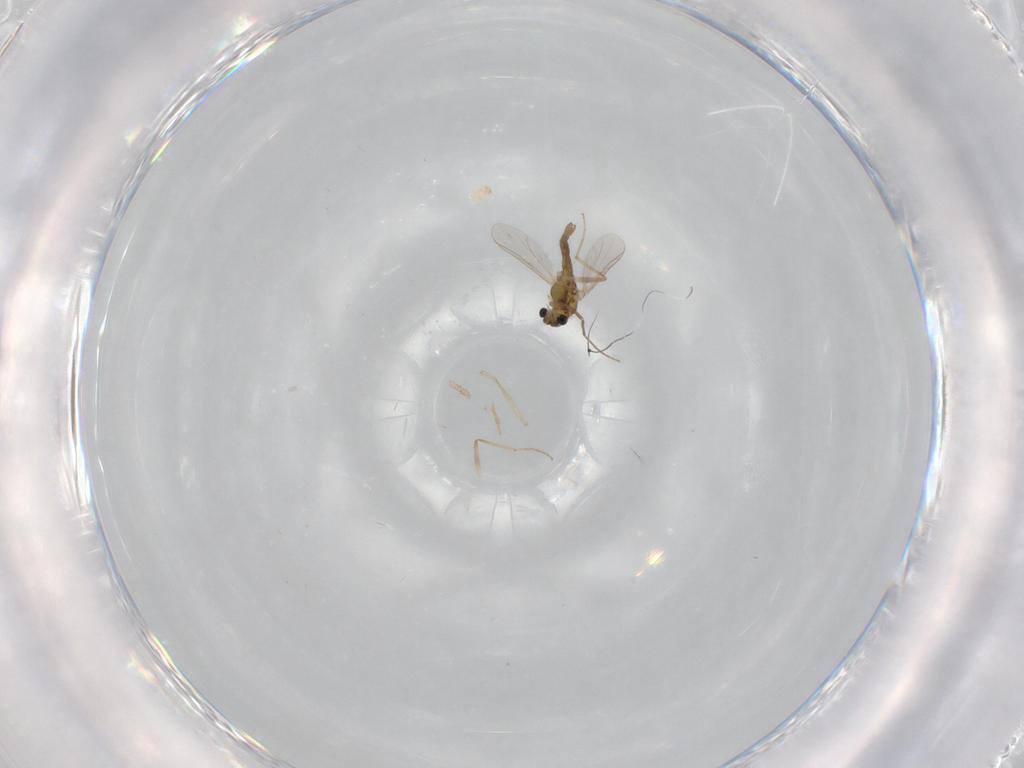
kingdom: Animalia
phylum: Arthropoda
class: Insecta
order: Diptera
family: Chironomidae
